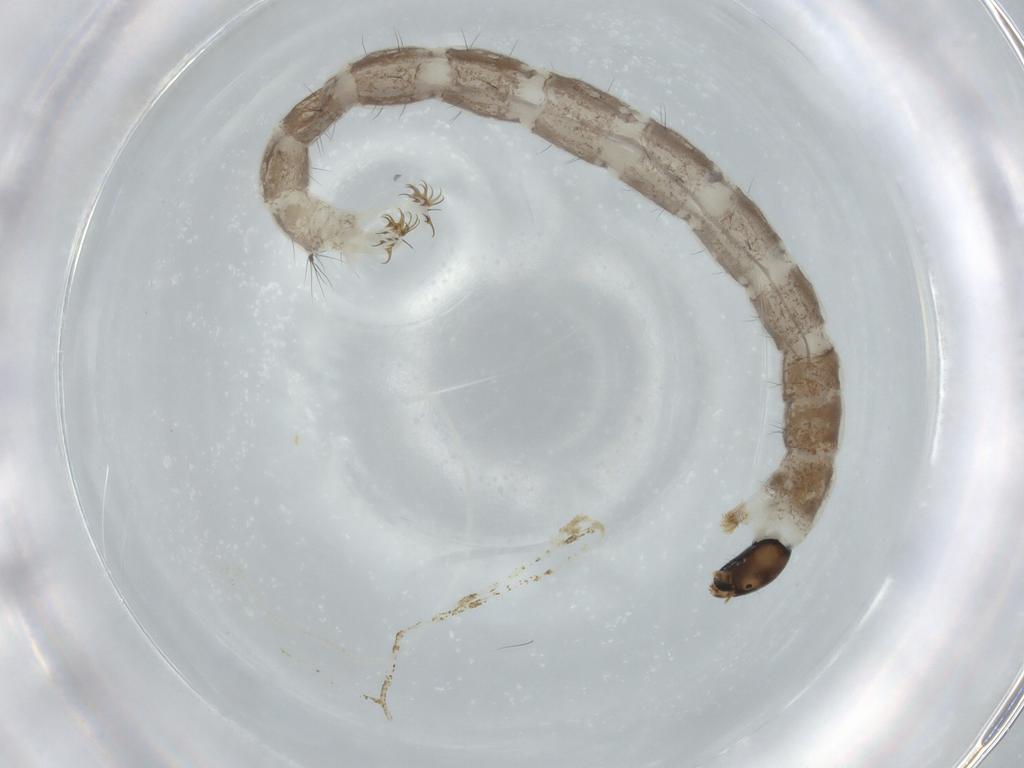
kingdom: Animalia
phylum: Arthropoda
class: Insecta
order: Diptera
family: Chironomidae
